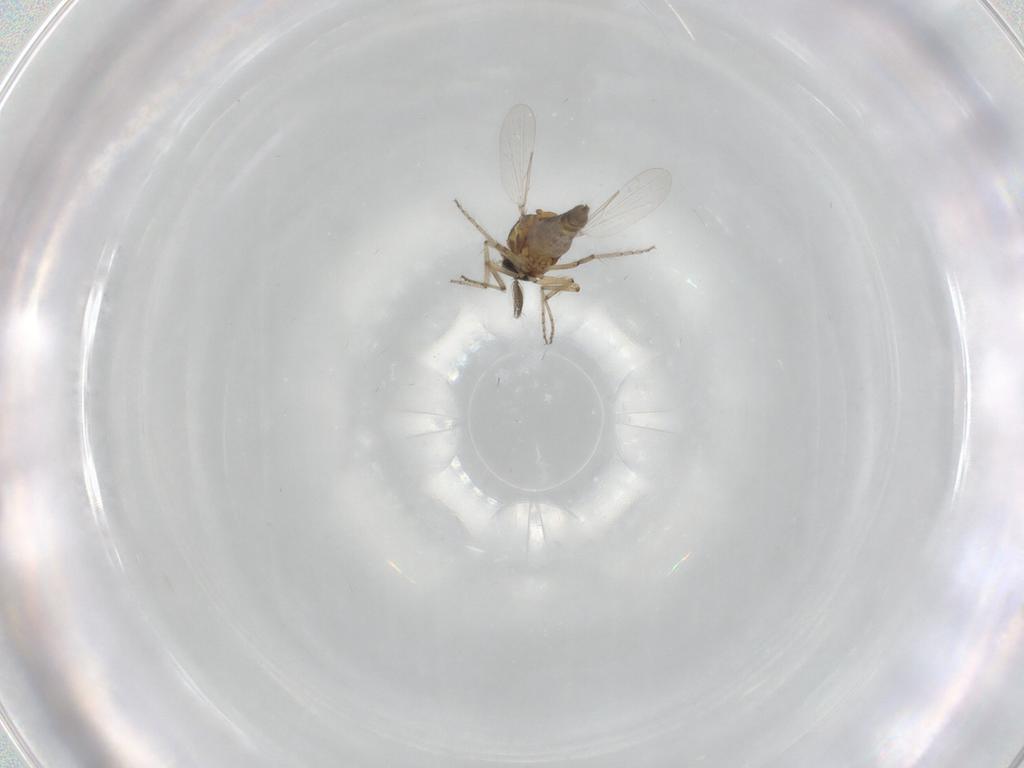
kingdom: Animalia
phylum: Arthropoda
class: Insecta
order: Diptera
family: Ceratopogonidae
